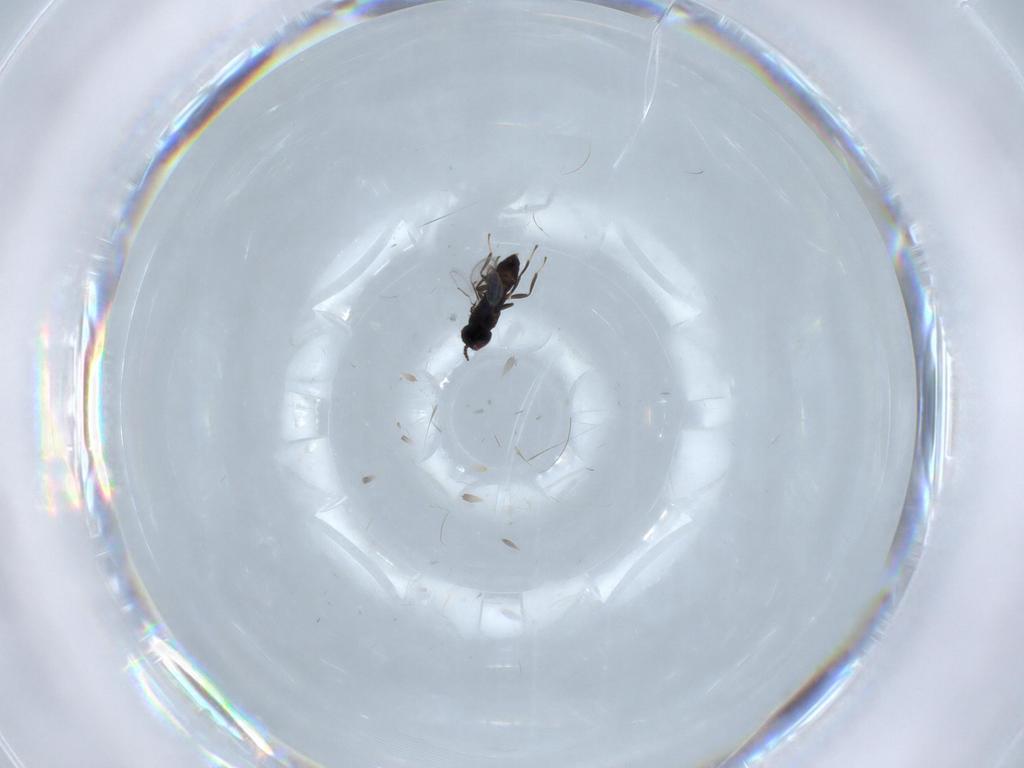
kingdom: Animalia
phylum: Arthropoda
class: Insecta
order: Hymenoptera
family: Eulophidae
